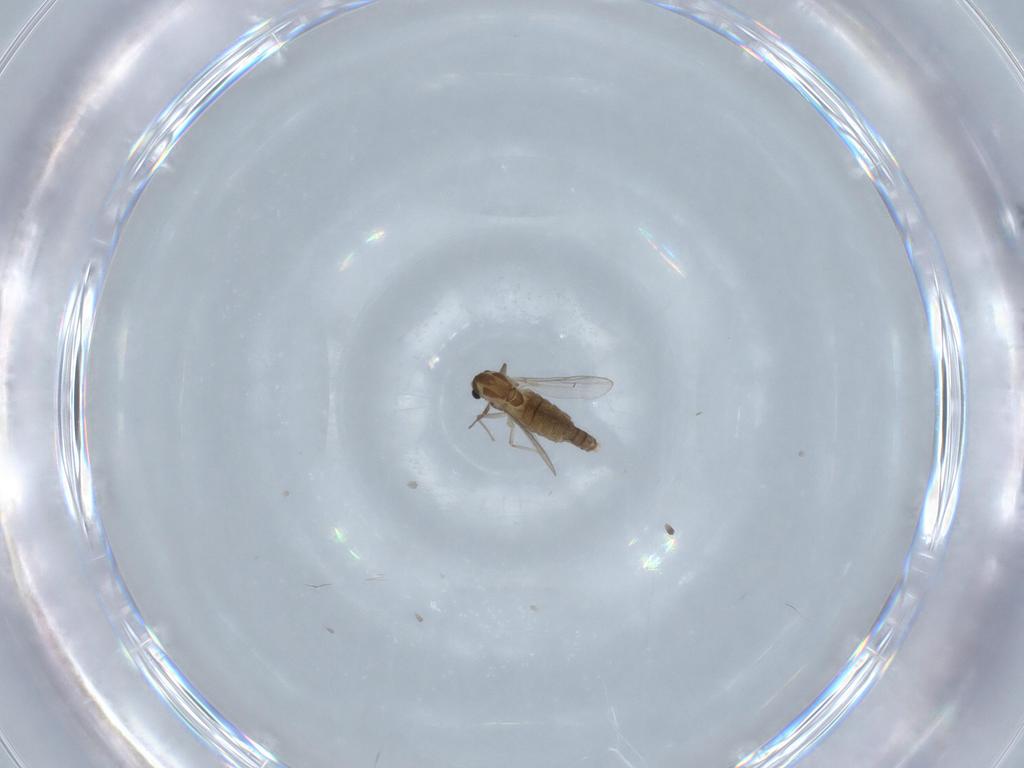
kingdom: Animalia
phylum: Arthropoda
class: Insecta
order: Diptera
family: Chironomidae
